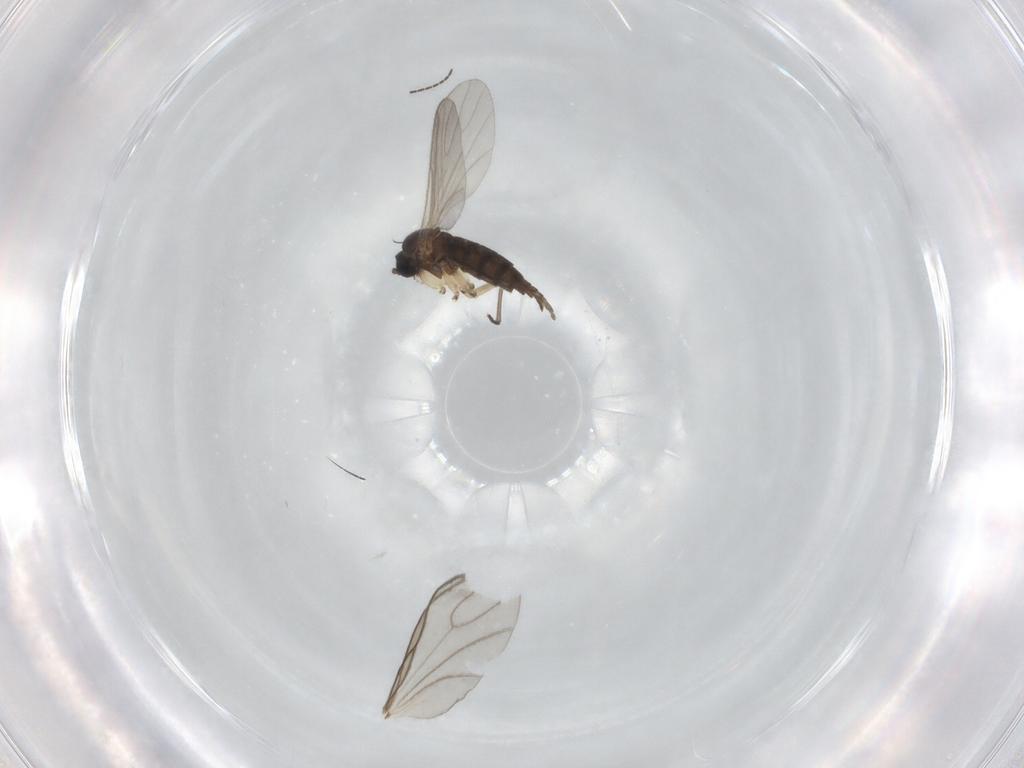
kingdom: Animalia
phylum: Arthropoda
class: Insecta
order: Diptera
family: Sciaridae
